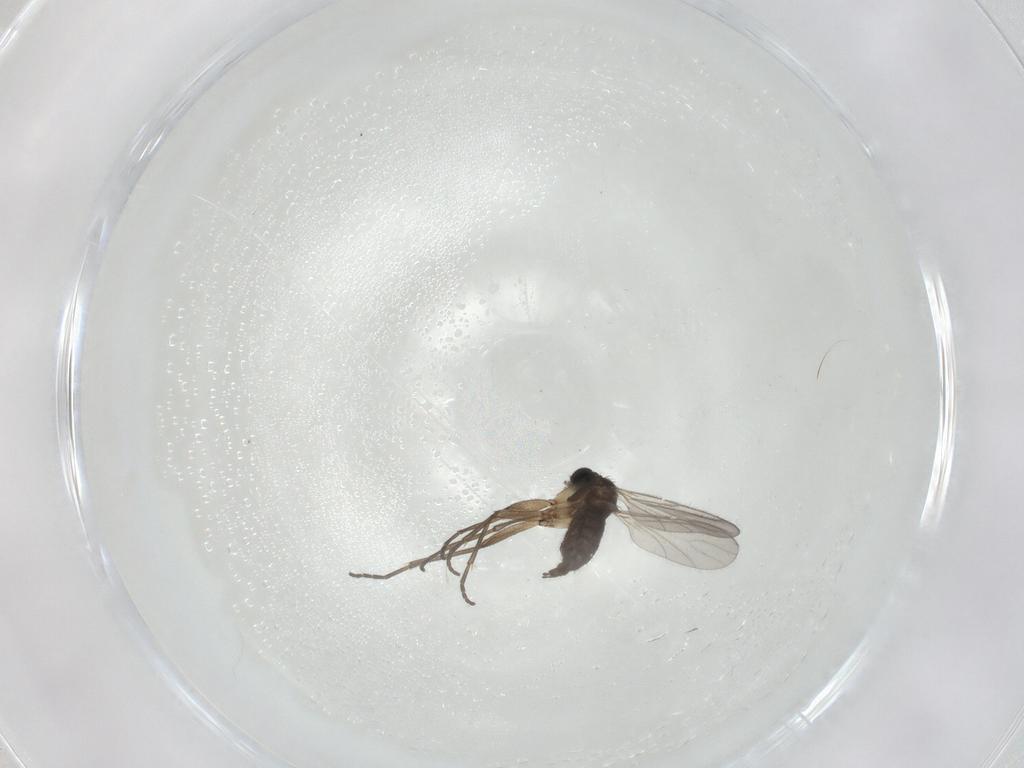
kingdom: Animalia
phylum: Arthropoda
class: Insecta
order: Diptera
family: Sciaridae
